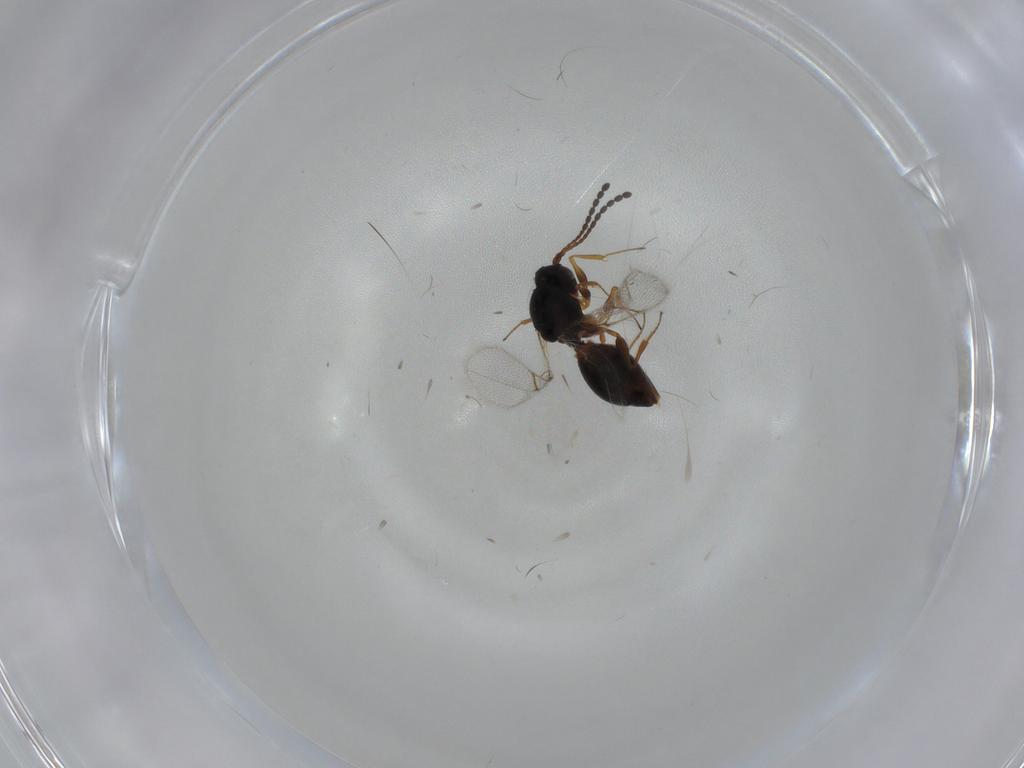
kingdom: Animalia
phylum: Arthropoda
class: Insecta
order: Hymenoptera
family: Figitidae
